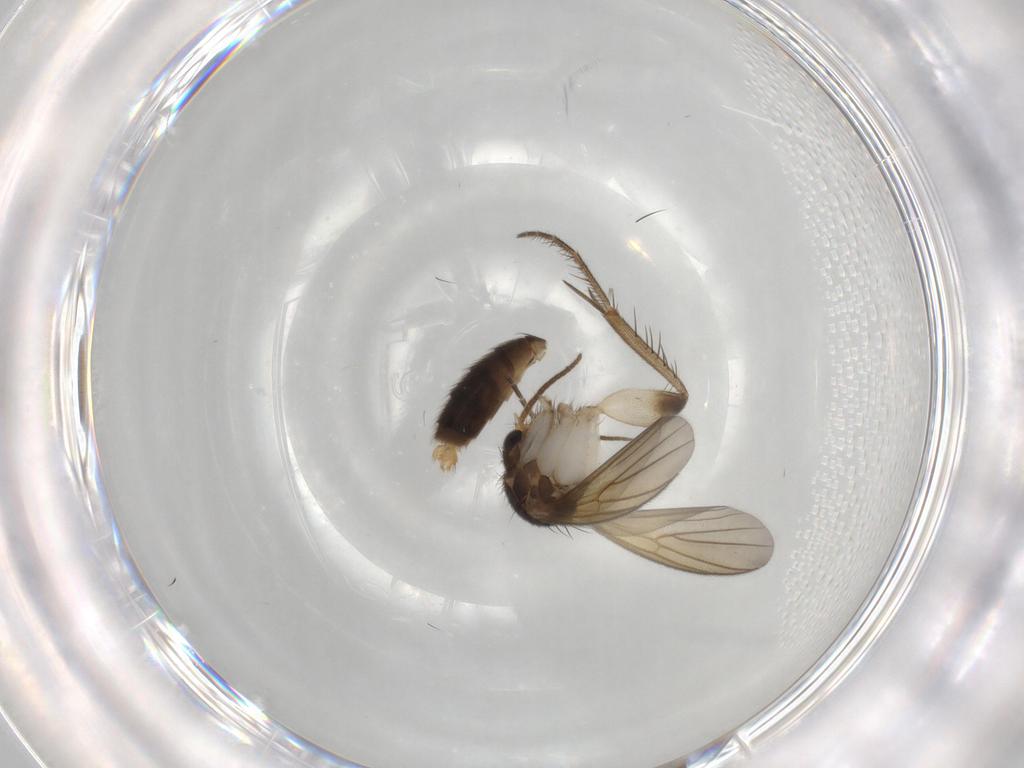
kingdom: Animalia
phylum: Arthropoda
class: Insecta
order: Diptera
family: Mycetophilidae
